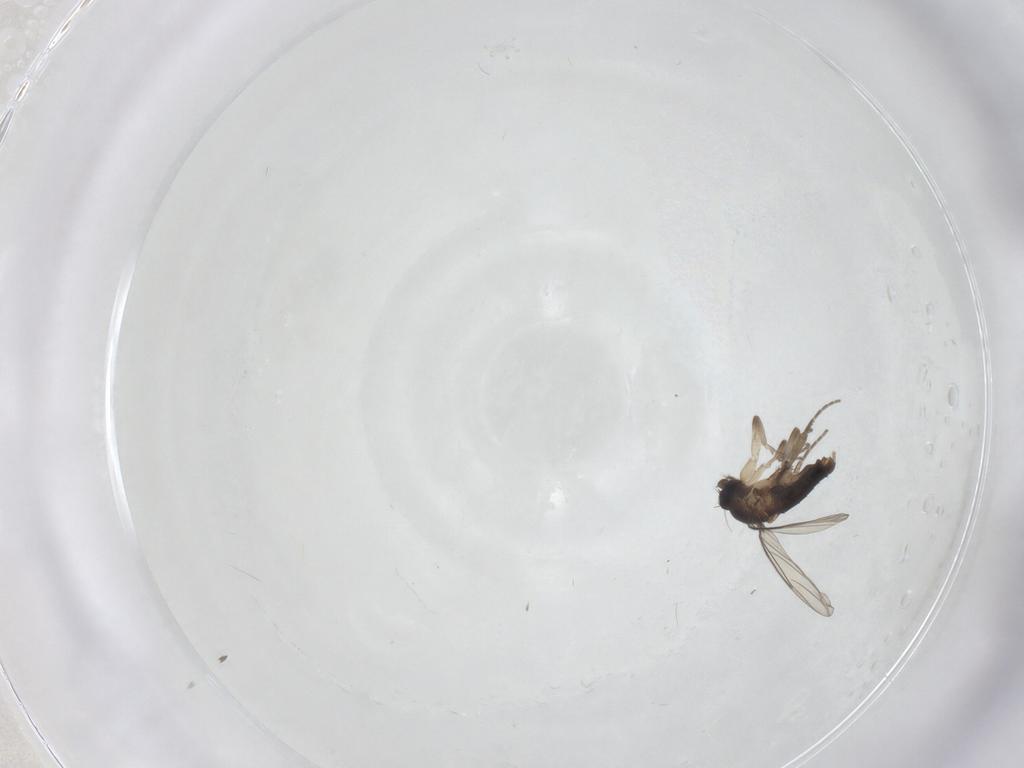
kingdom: Animalia
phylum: Arthropoda
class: Insecta
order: Diptera
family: Phoridae
